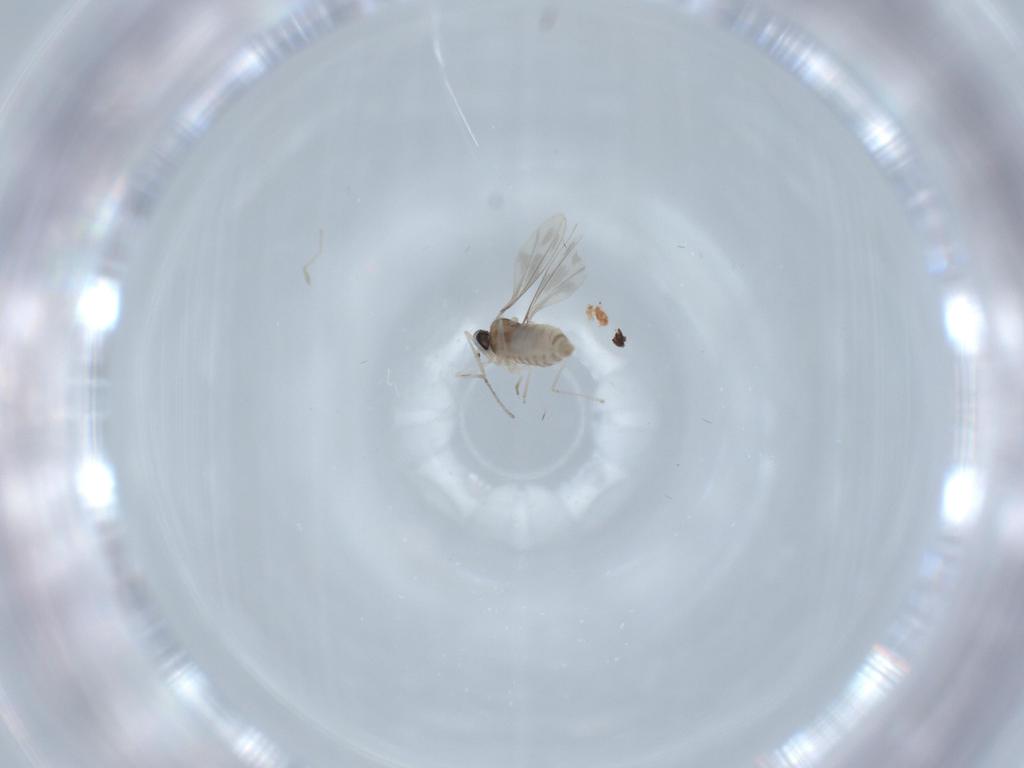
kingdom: Animalia
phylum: Arthropoda
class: Insecta
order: Diptera
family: Cecidomyiidae
